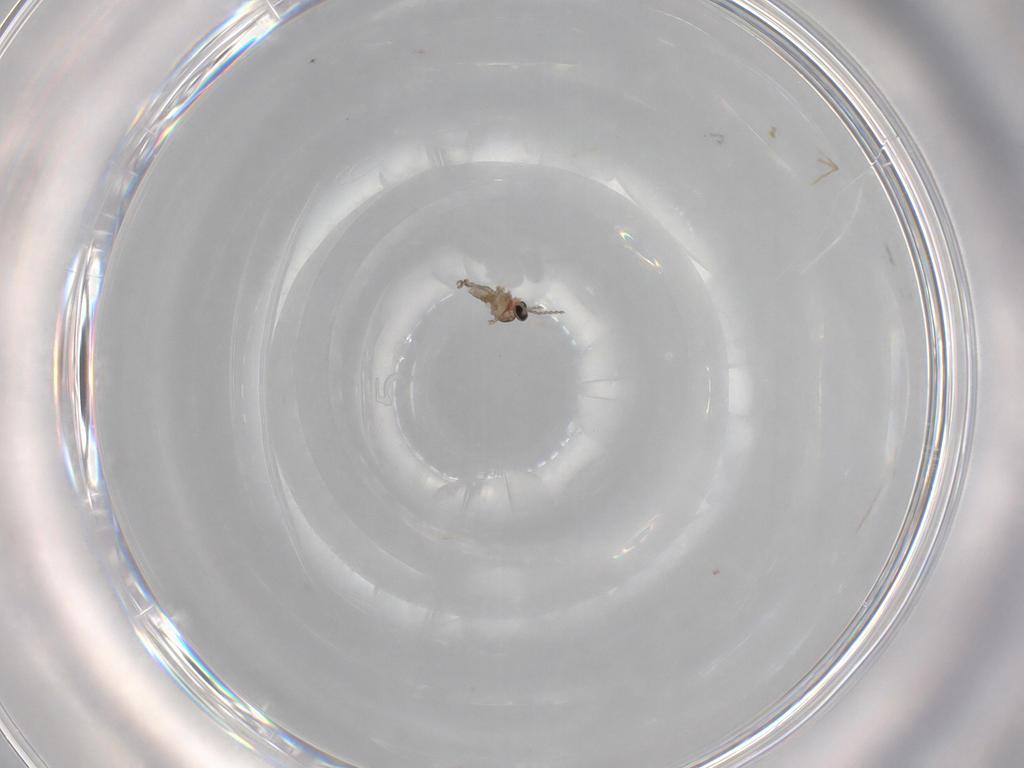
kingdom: Animalia
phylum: Arthropoda
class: Insecta
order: Diptera
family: Cecidomyiidae
